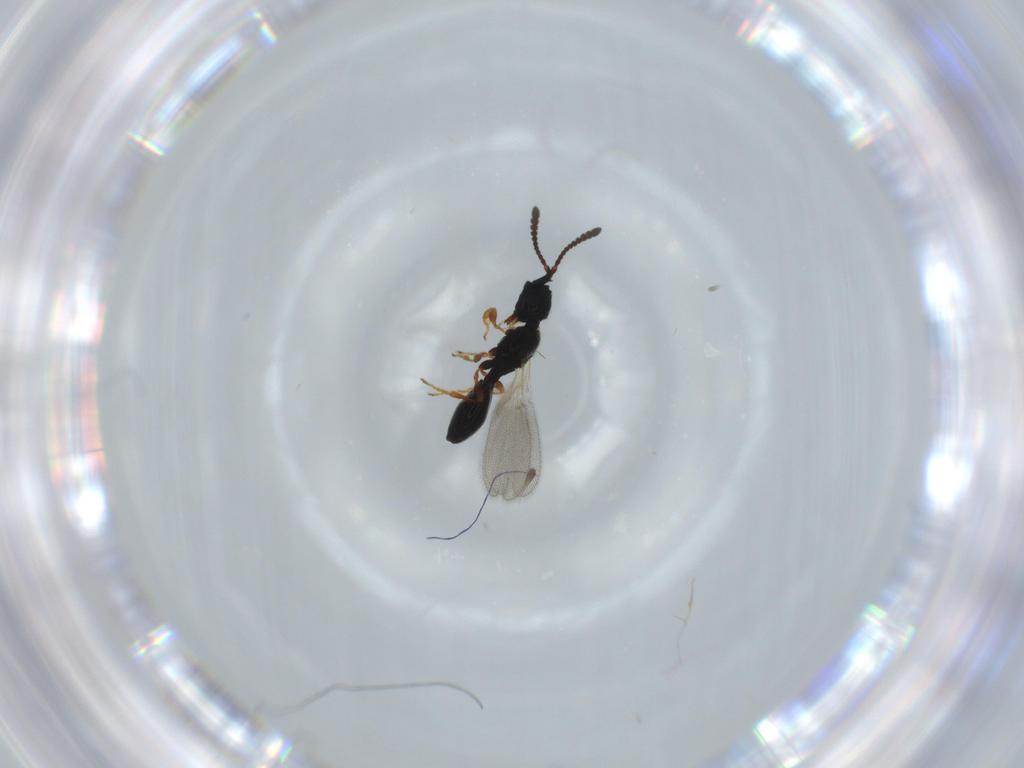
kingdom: Animalia
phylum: Arthropoda
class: Insecta
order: Hymenoptera
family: Diapriidae
